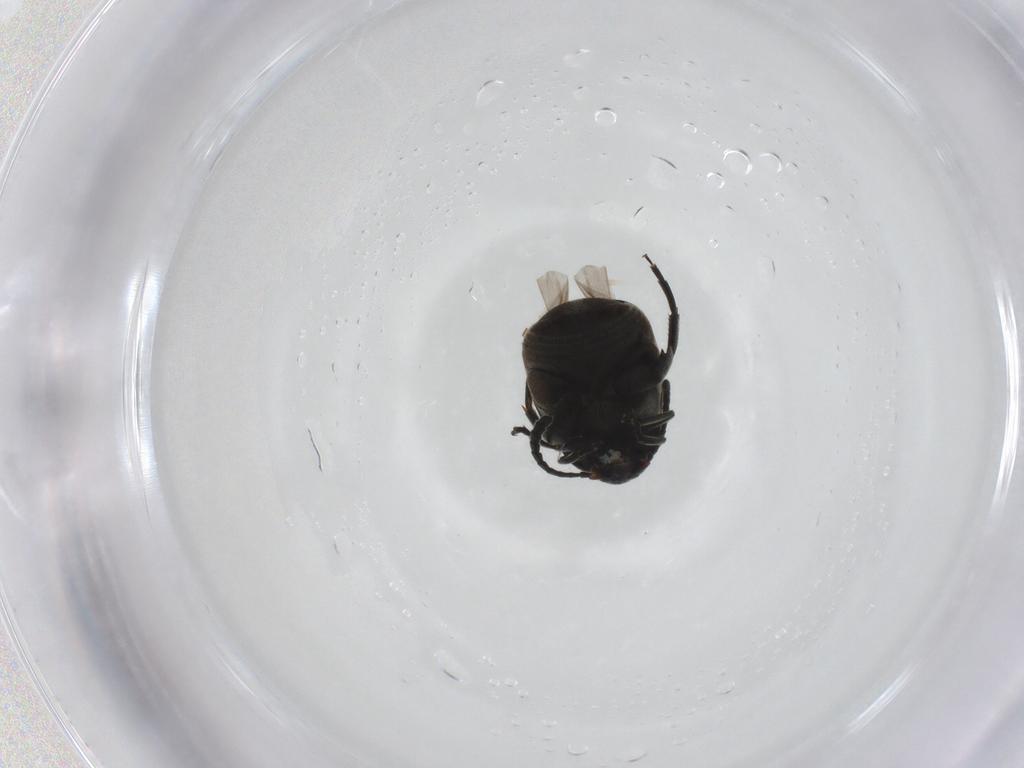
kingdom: Animalia
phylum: Arthropoda
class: Insecta
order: Coleoptera
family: Chrysomelidae
